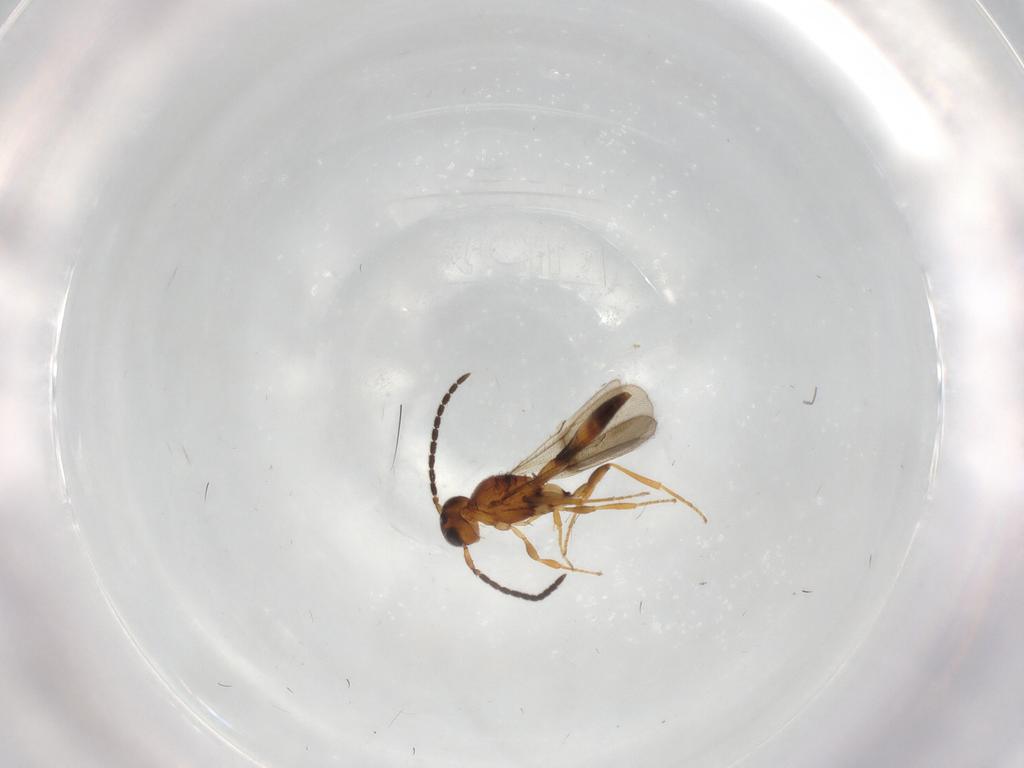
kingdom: Animalia
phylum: Arthropoda
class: Insecta
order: Hymenoptera
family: Scelionidae
